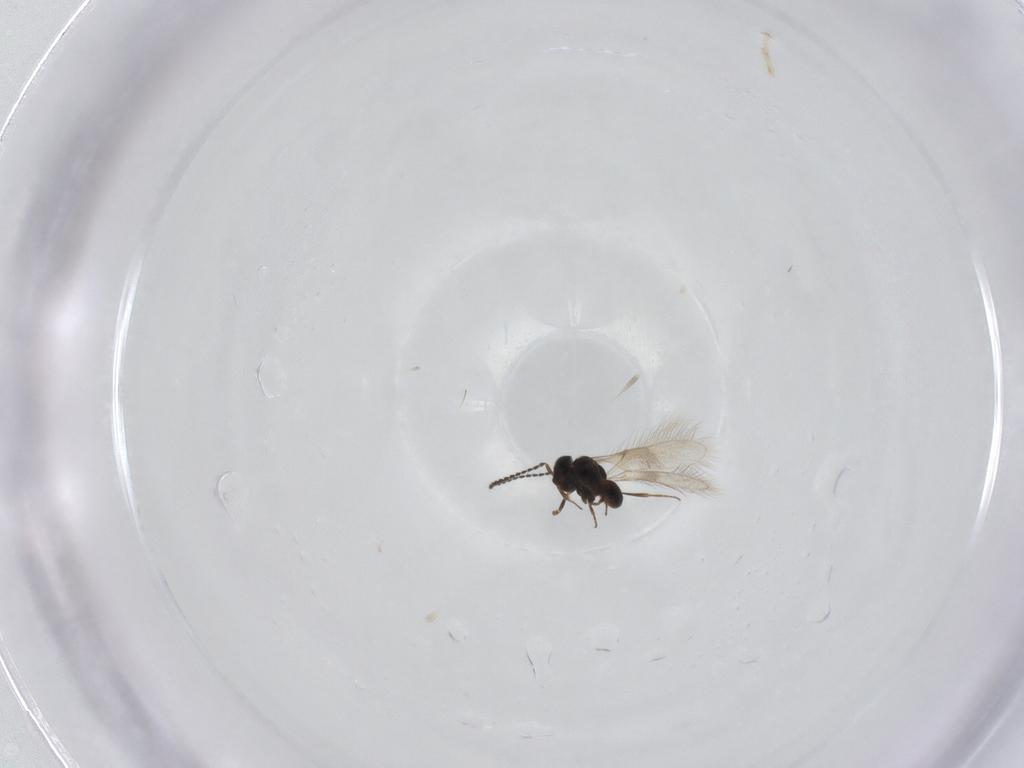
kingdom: Animalia
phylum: Arthropoda
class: Insecta
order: Hymenoptera
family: Scelionidae
